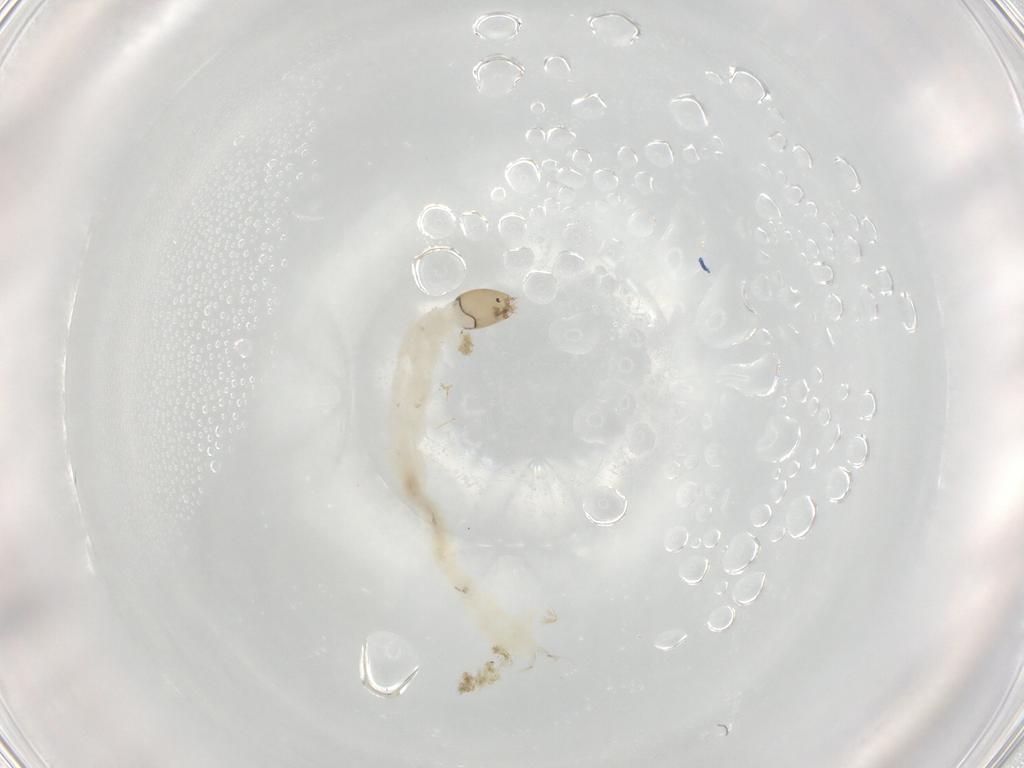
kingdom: Animalia
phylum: Arthropoda
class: Insecta
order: Diptera
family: Chironomidae
